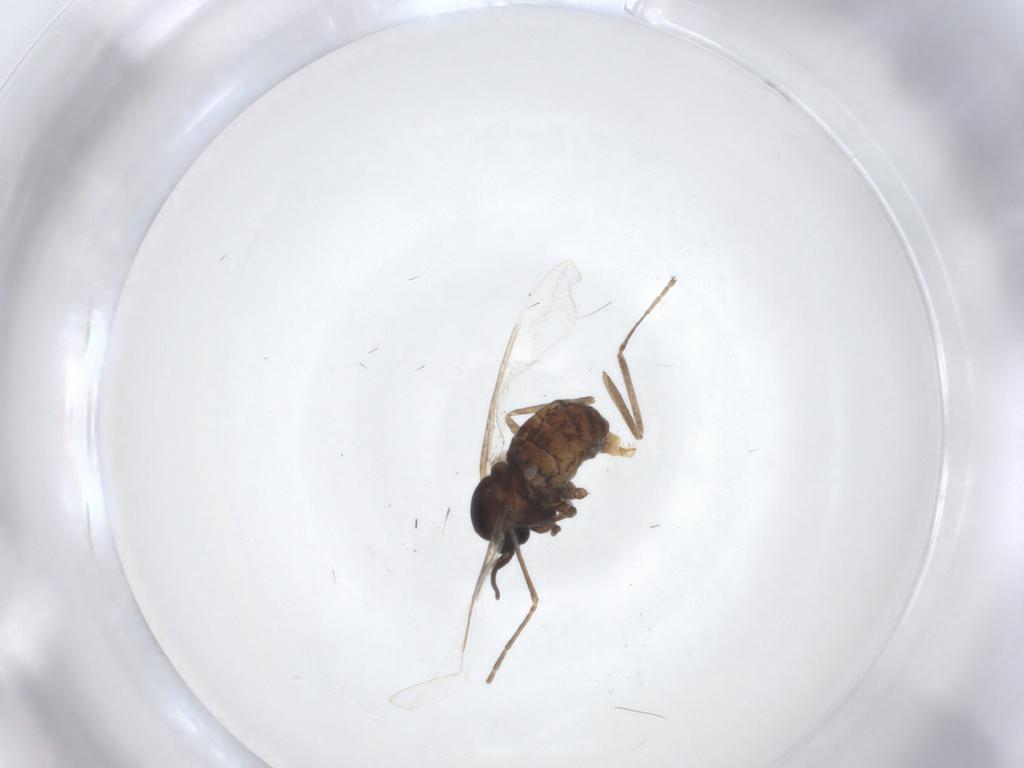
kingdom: Animalia
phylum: Arthropoda
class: Insecta
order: Diptera
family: Cecidomyiidae
